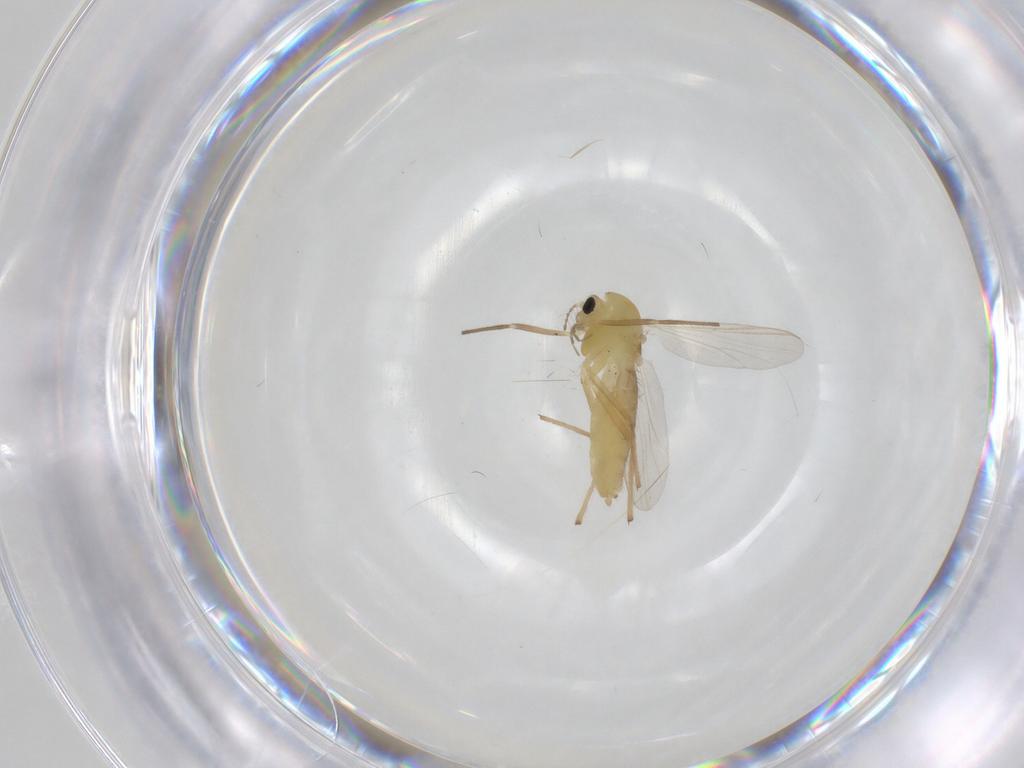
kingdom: Animalia
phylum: Arthropoda
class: Insecta
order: Diptera
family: Chironomidae
